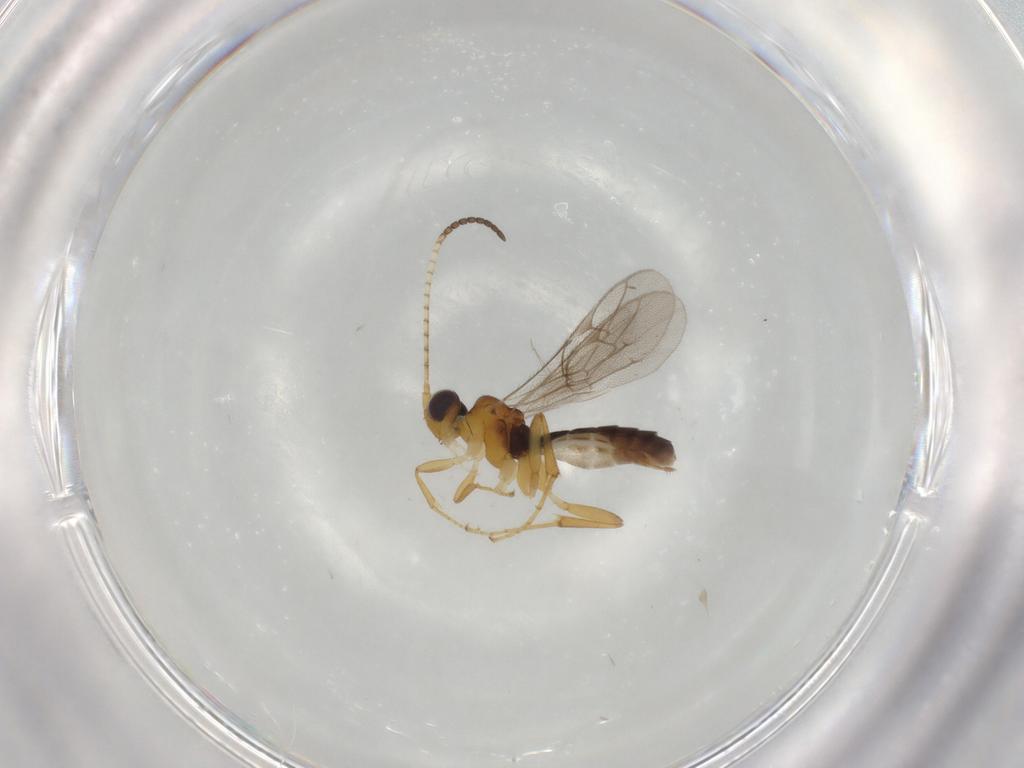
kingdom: Animalia
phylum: Arthropoda
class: Insecta
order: Hymenoptera
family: Ichneumonidae
